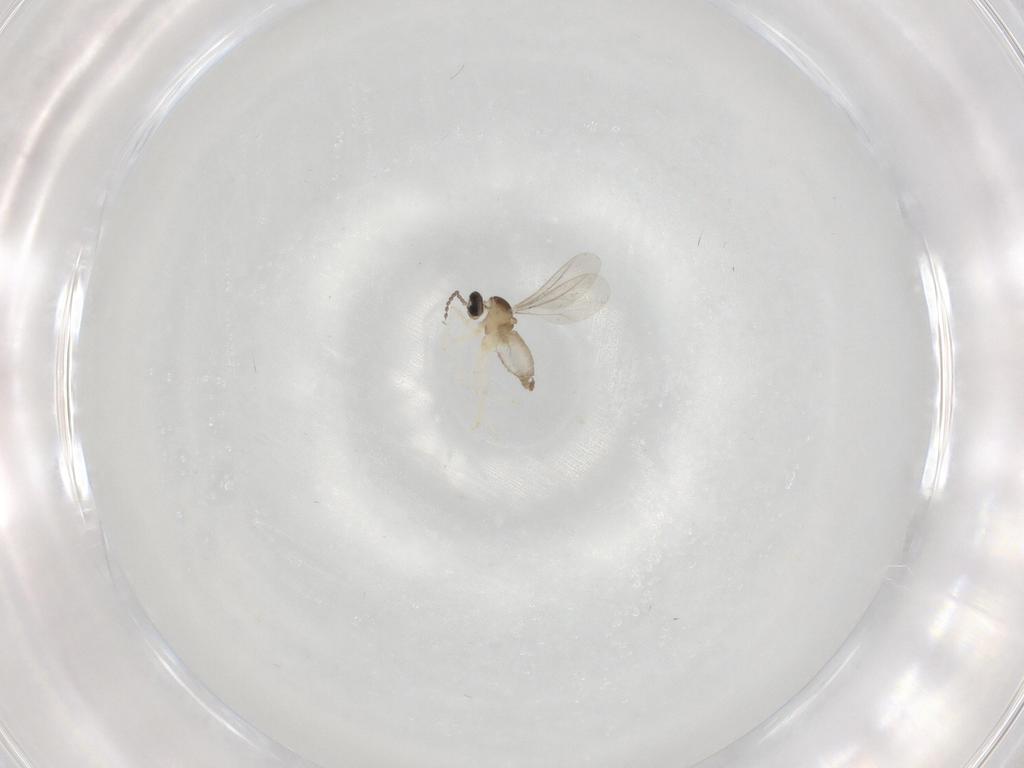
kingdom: Animalia
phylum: Arthropoda
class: Insecta
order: Diptera
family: Cecidomyiidae
